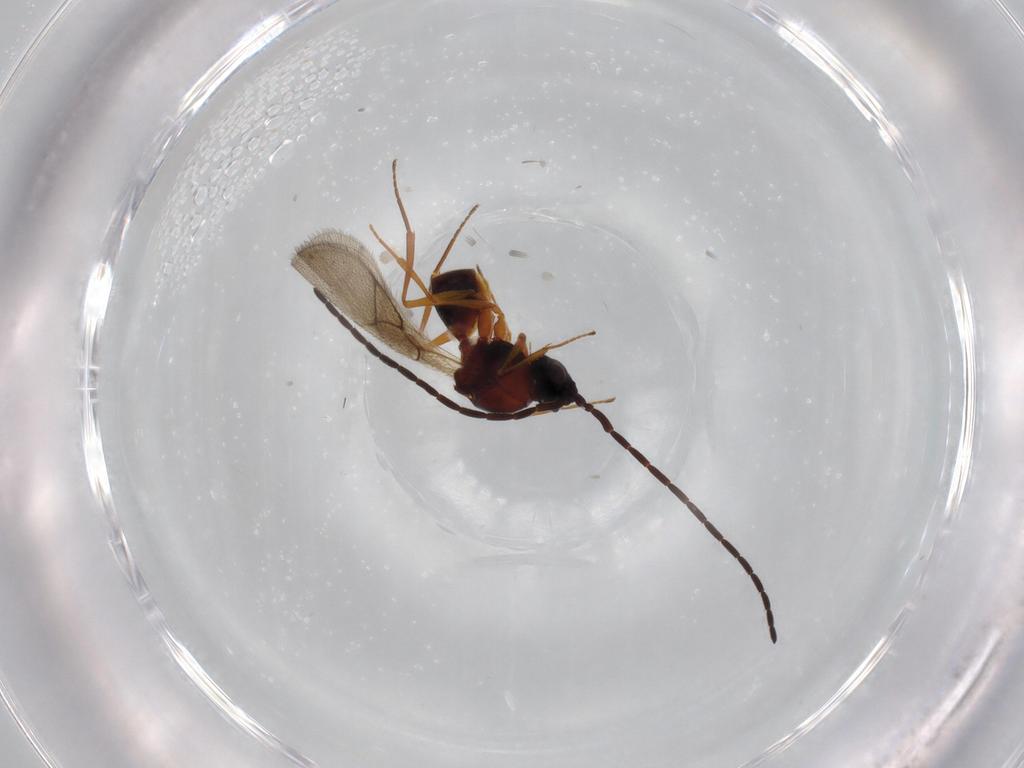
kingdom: Animalia
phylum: Arthropoda
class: Insecta
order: Hymenoptera
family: Figitidae
